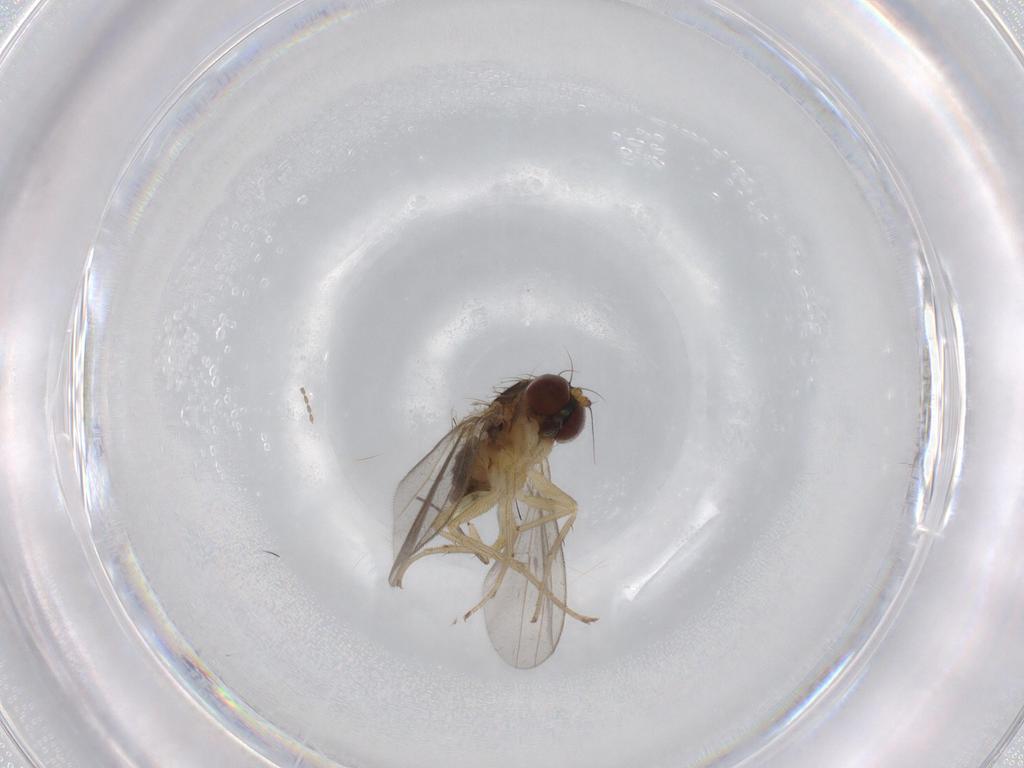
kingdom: Animalia
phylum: Arthropoda
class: Insecta
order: Diptera
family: Dolichopodidae
